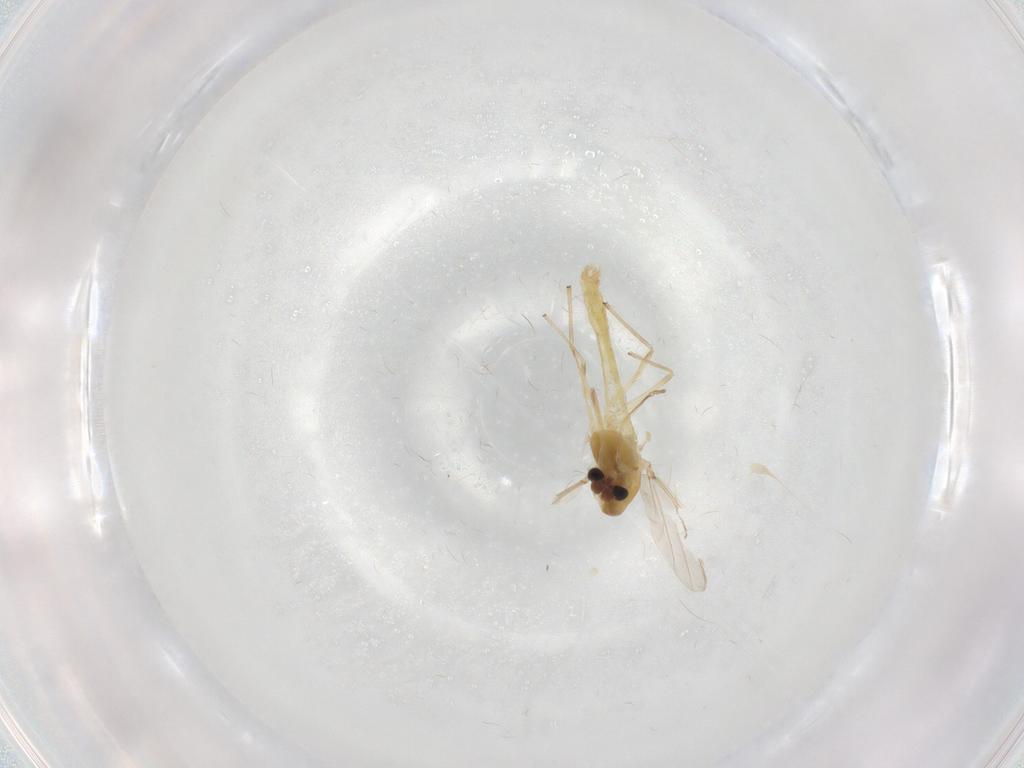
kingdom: Animalia
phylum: Arthropoda
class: Insecta
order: Diptera
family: Chironomidae
